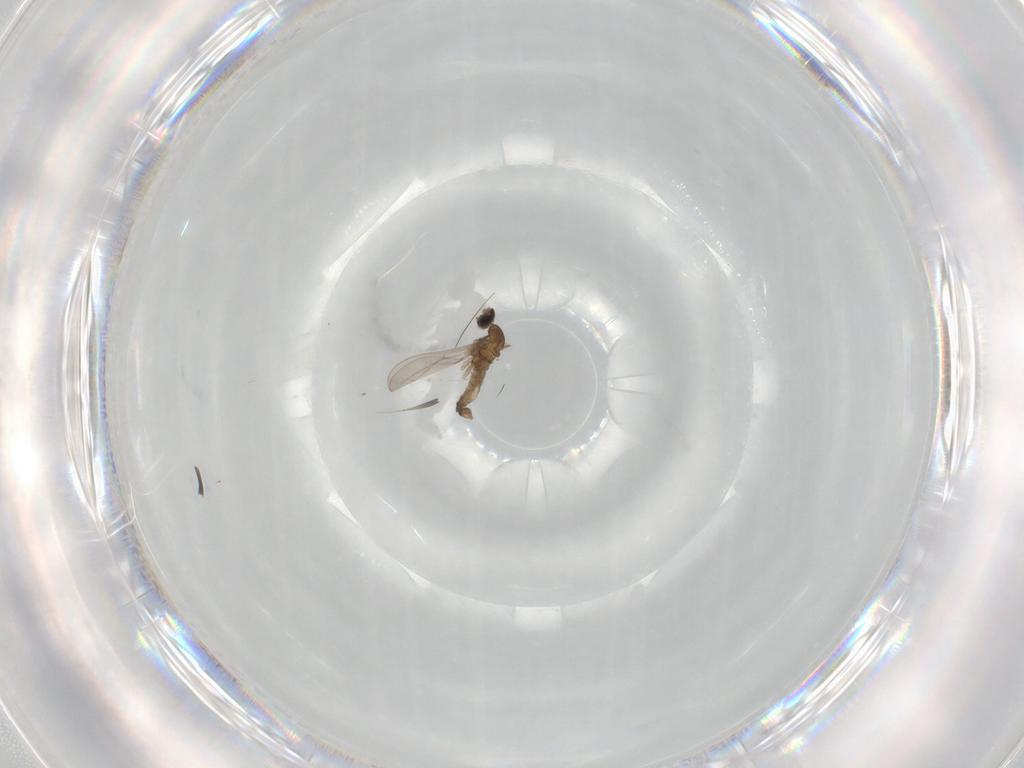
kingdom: Animalia
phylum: Arthropoda
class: Insecta
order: Diptera
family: Cecidomyiidae
